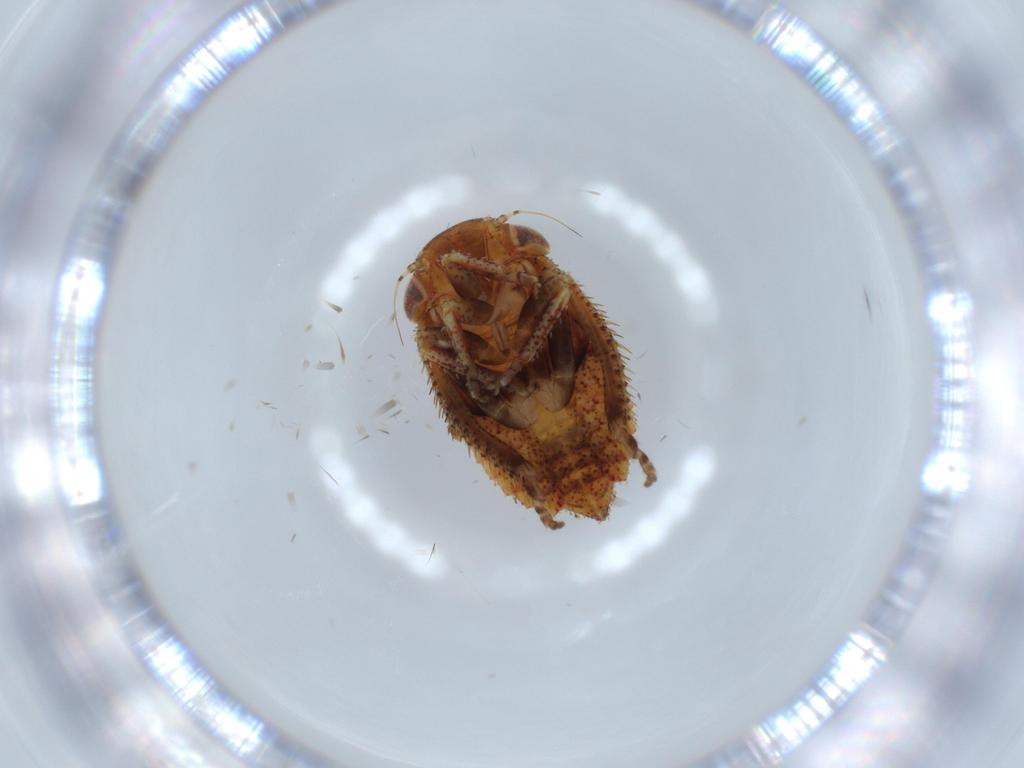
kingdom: Animalia
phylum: Arthropoda
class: Insecta
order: Hemiptera
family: Cicadellidae
